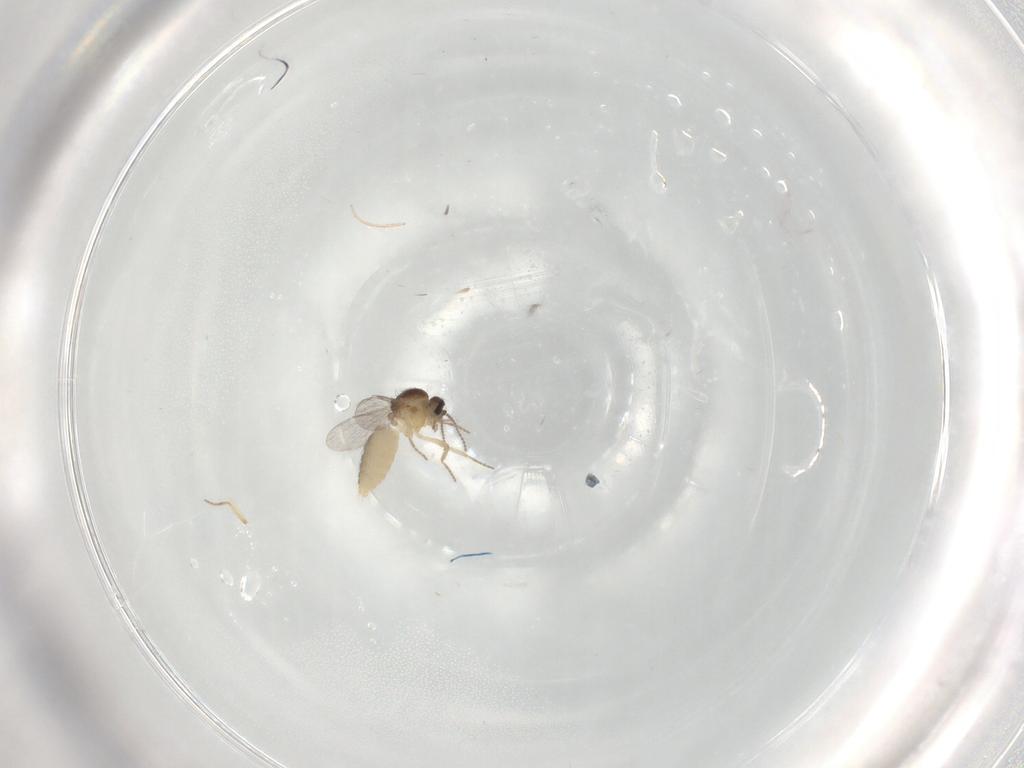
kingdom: Animalia
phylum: Arthropoda
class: Insecta
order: Diptera
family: Ceratopogonidae
